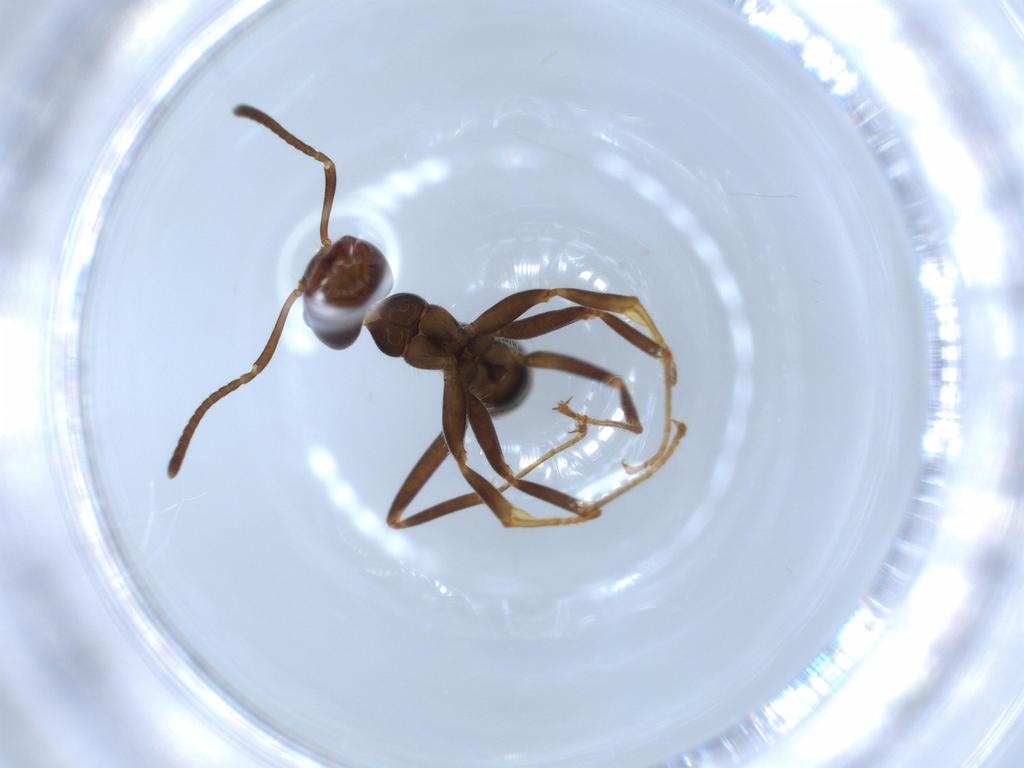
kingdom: Animalia
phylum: Arthropoda
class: Insecta
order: Hymenoptera
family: Formicidae
